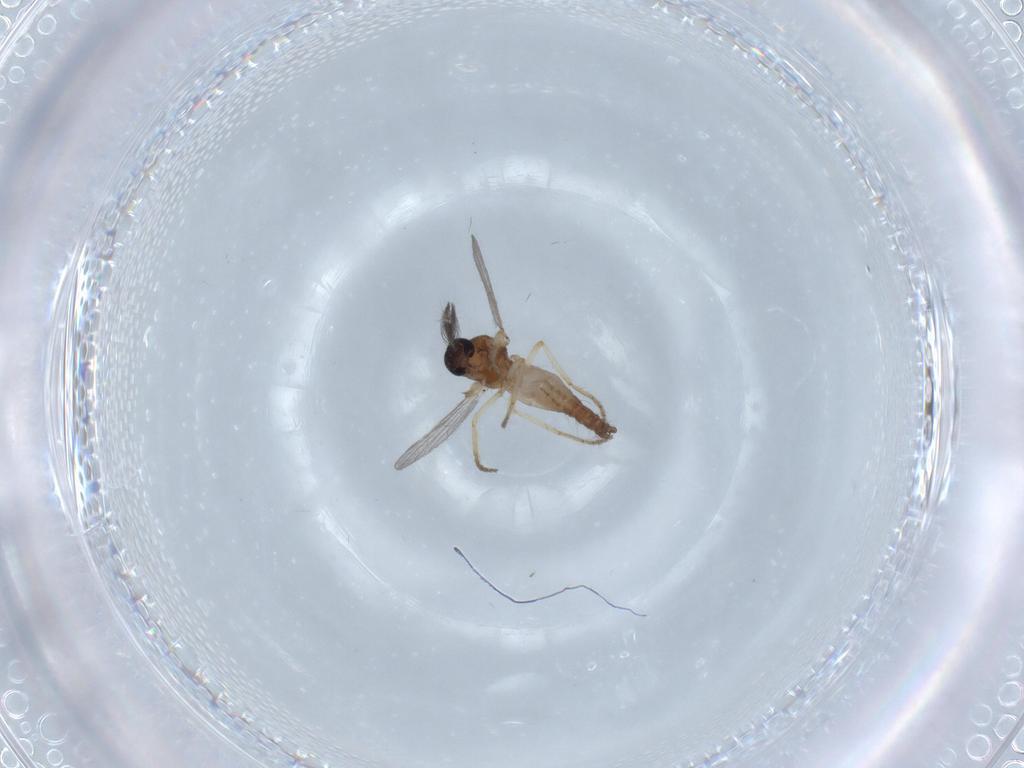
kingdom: Animalia
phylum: Arthropoda
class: Insecta
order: Diptera
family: Ceratopogonidae
